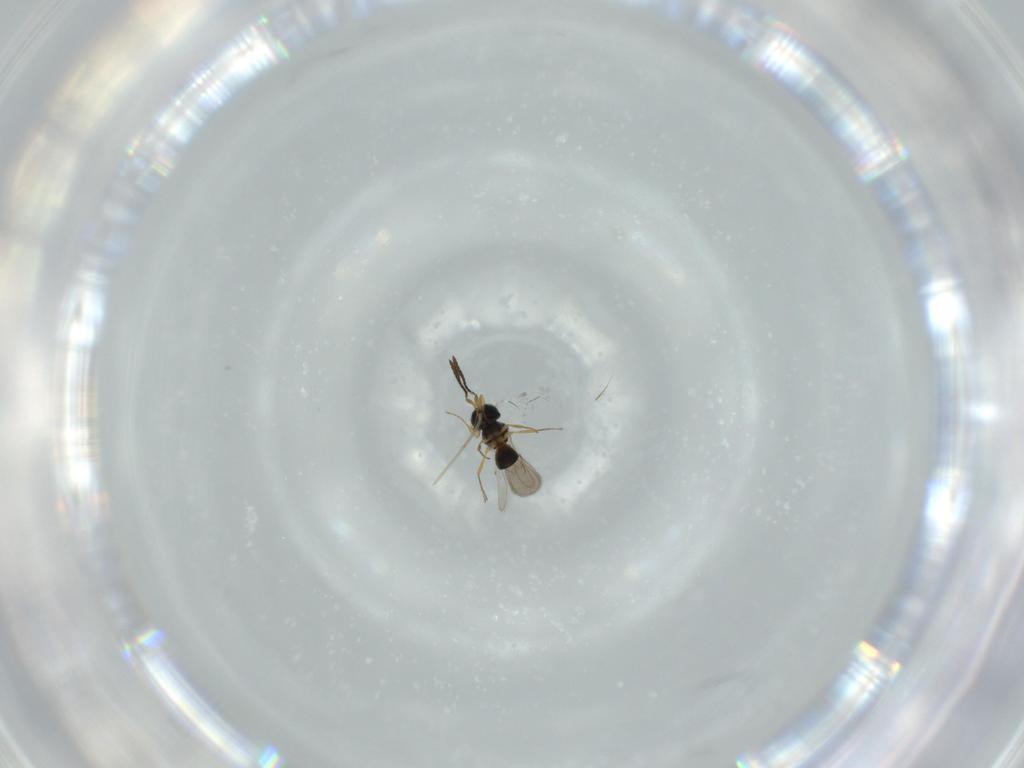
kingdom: Animalia
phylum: Arthropoda
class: Insecta
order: Hymenoptera
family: Scelionidae
